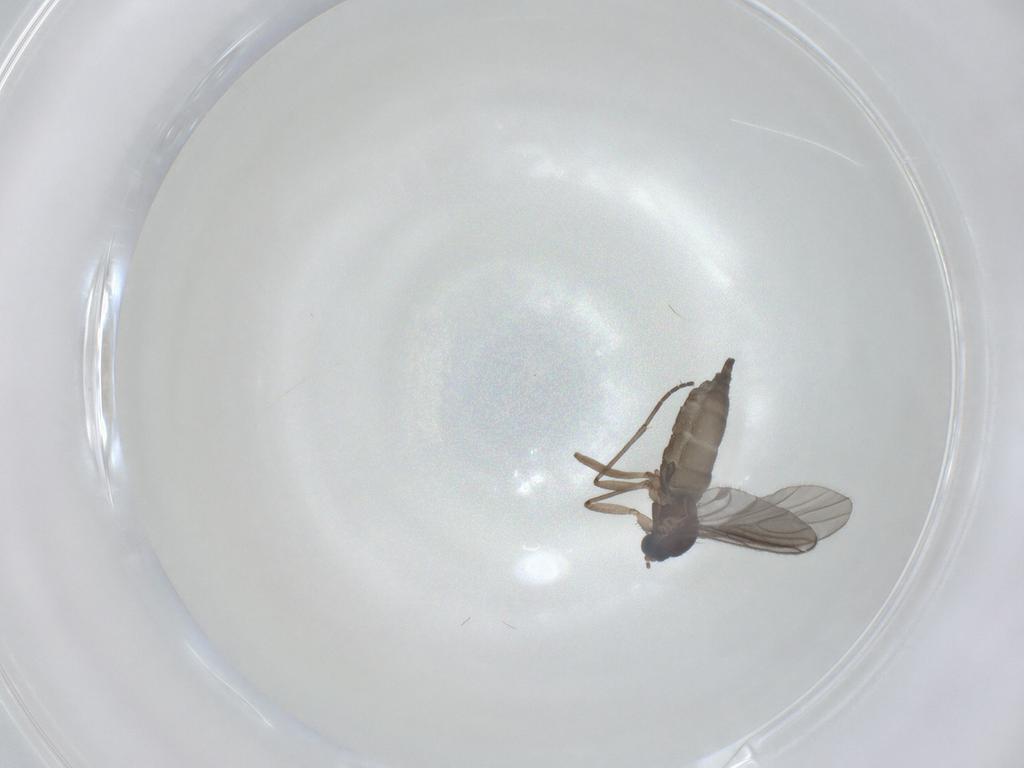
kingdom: Animalia
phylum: Arthropoda
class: Insecta
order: Diptera
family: Sciaridae
